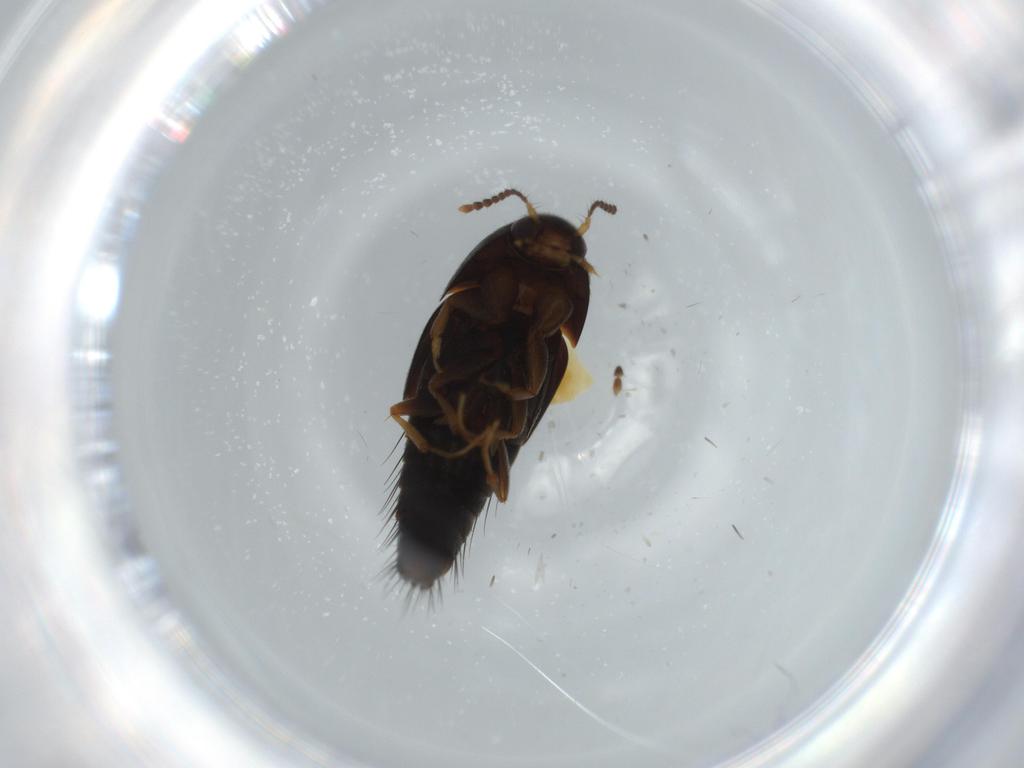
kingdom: Animalia
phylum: Arthropoda
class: Insecta
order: Coleoptera
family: Staphylinidae
